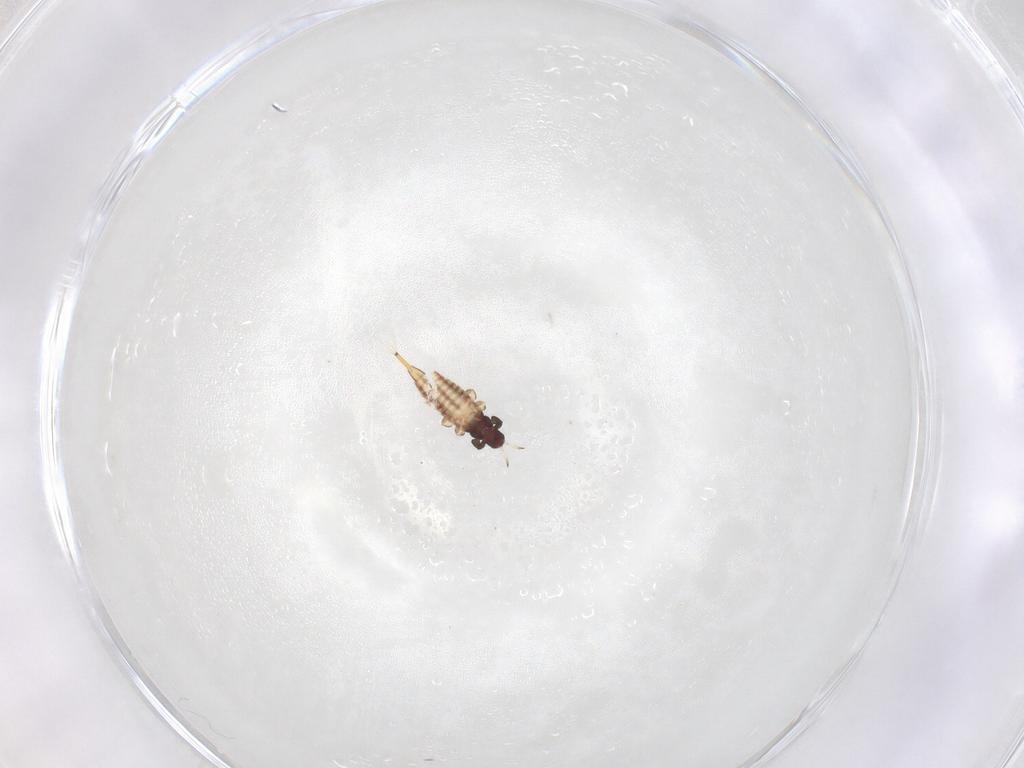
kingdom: Animalia
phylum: Arthropoda
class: Insecta
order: Thysanoptera
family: Phlaeothripidae
